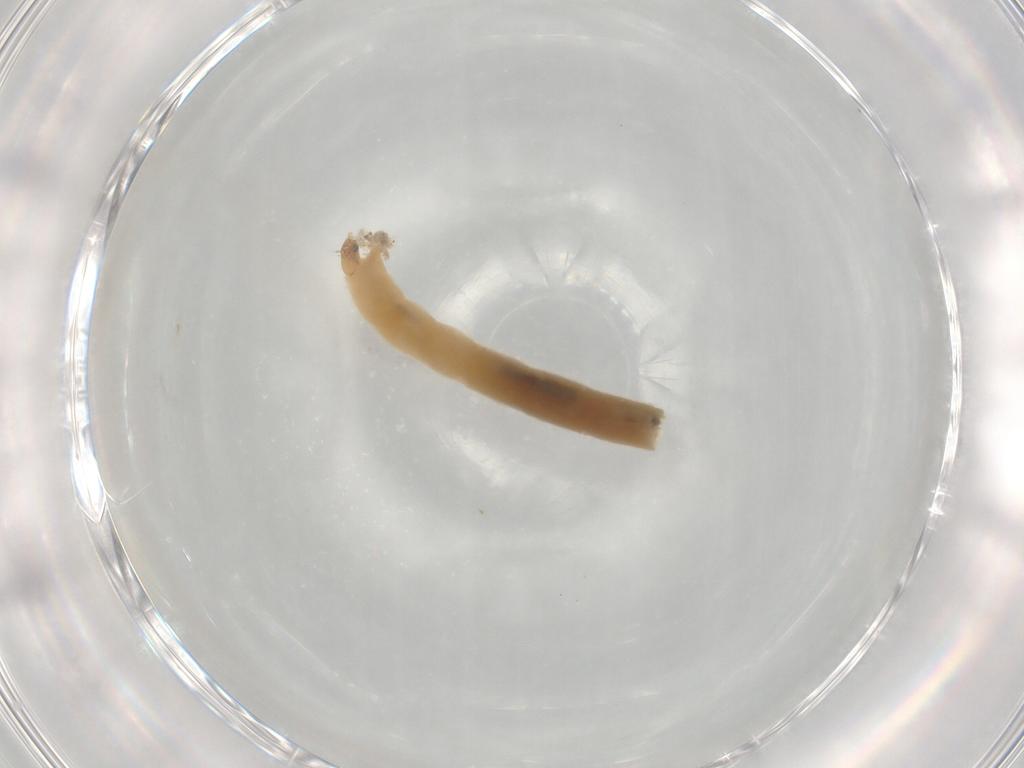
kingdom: Animalia
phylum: Arthropoda
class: Insecta
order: Diptera
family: Chironomidae
